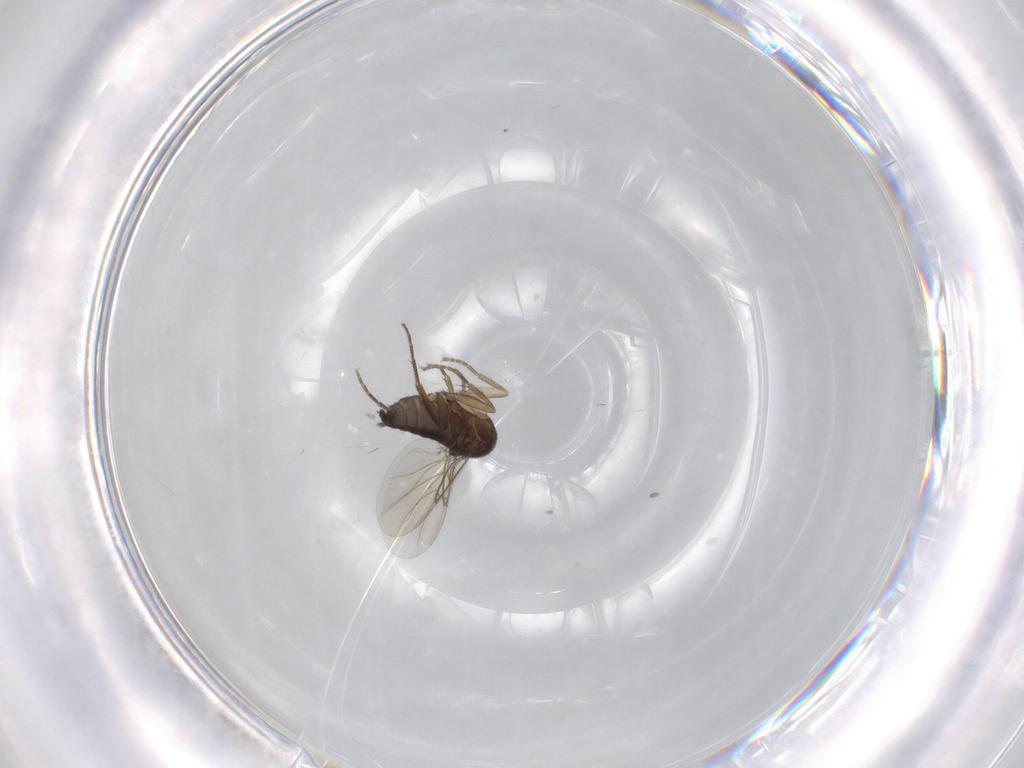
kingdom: Animalia
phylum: Arthropoda
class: Insecta
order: Diptera
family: Phoridae
